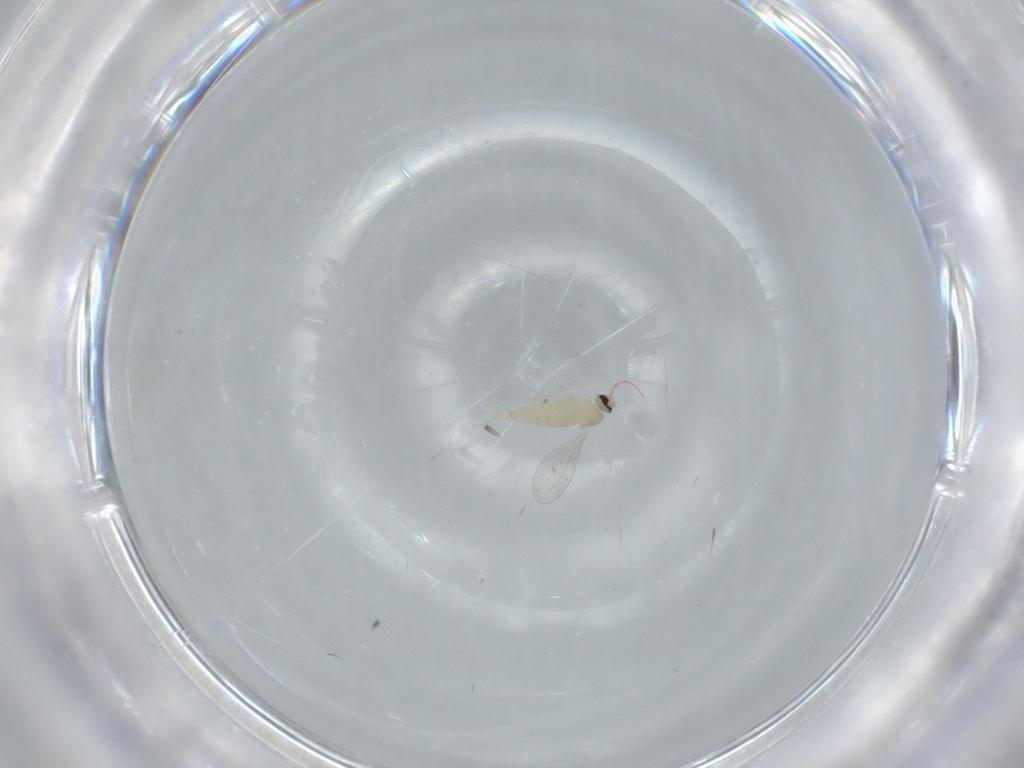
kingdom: Animalia
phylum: Arthropoda
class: Insecta
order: Diptera
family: Cecidomyiidae
